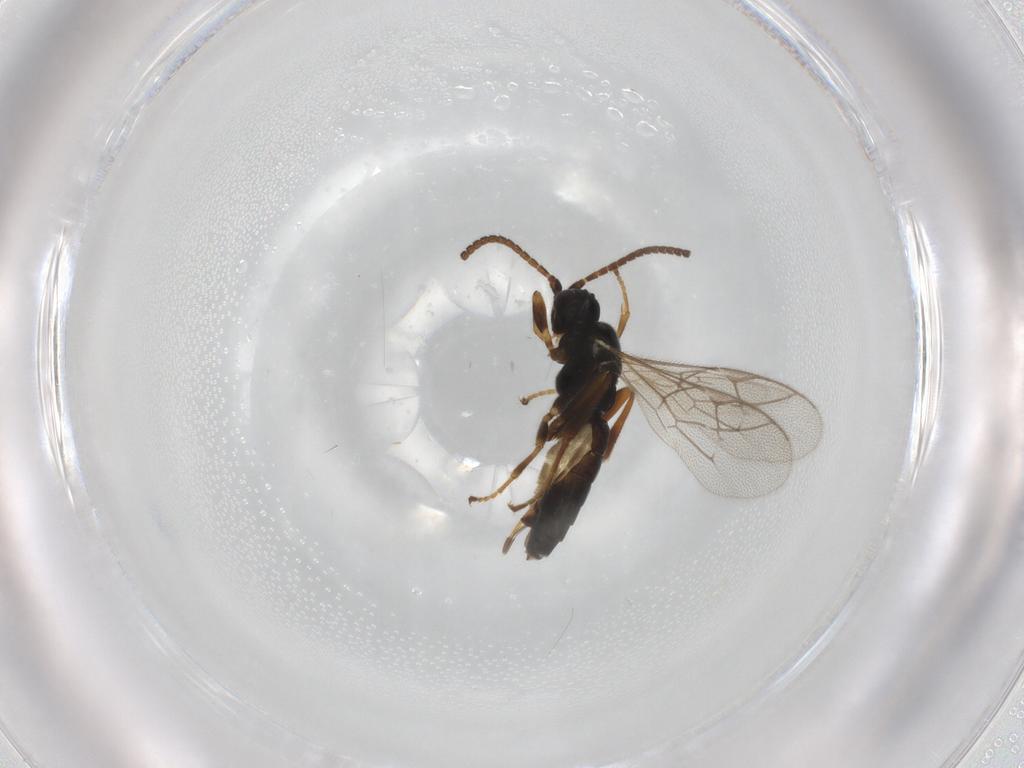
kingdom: Animalia
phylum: Arthropoda
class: Insecta
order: Hymenoptera
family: Ichneumonidae
